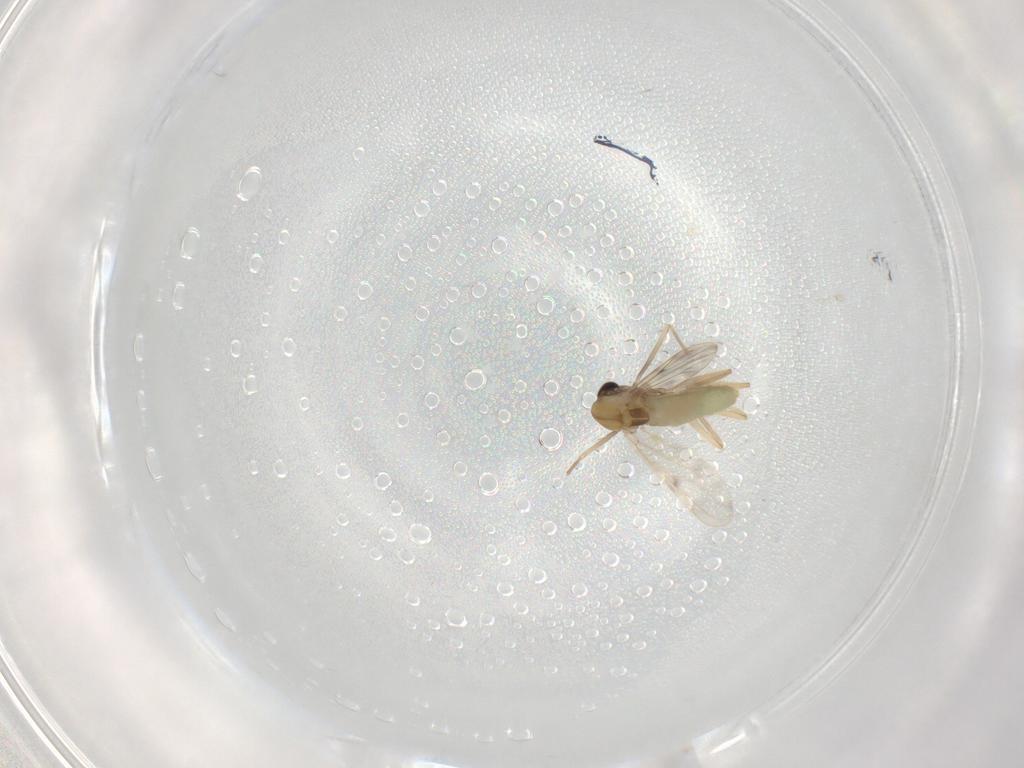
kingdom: Animalia
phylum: Arthropoda
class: Insecta
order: Diptera
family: Chironomidae
